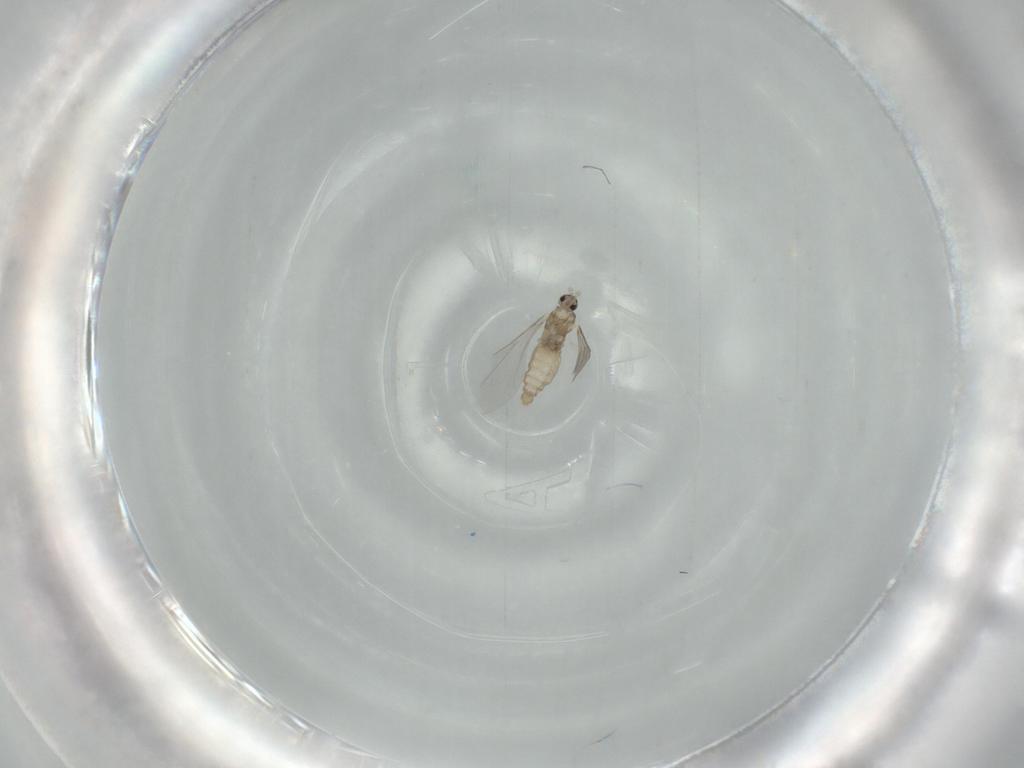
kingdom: Animalia
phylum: Arthropoda
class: Insecta
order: Diptera
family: Cecidomyiidae
